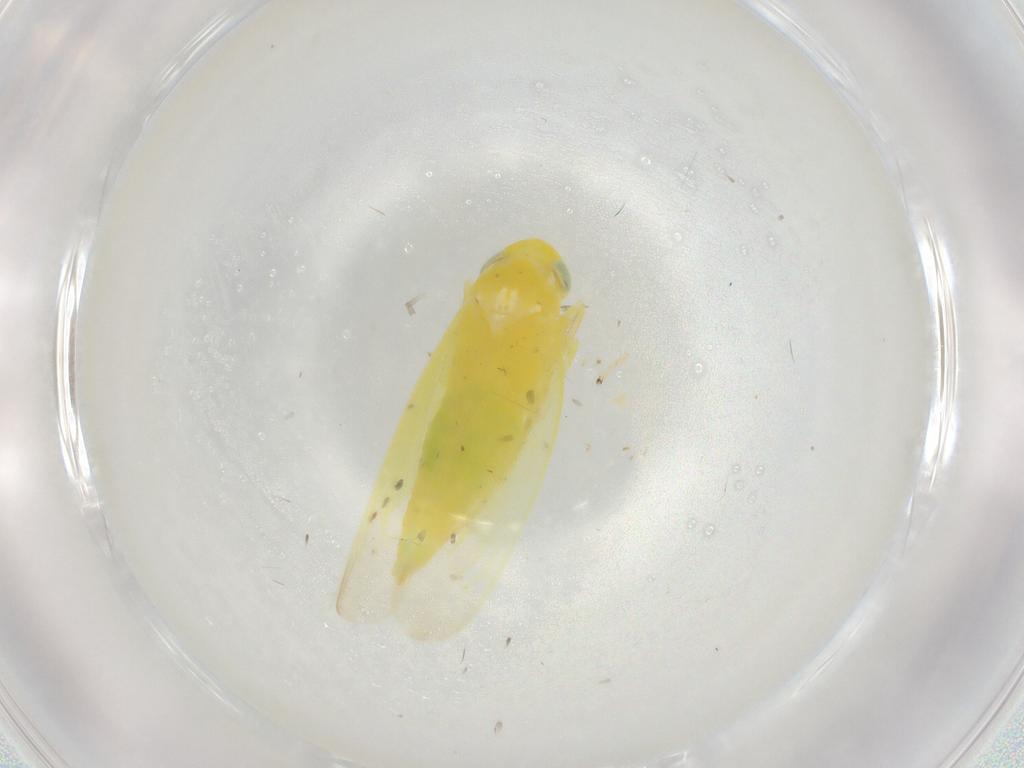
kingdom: Animalia
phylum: Arthropoda
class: Insecta
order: Hemiptera
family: Cicadellidae
